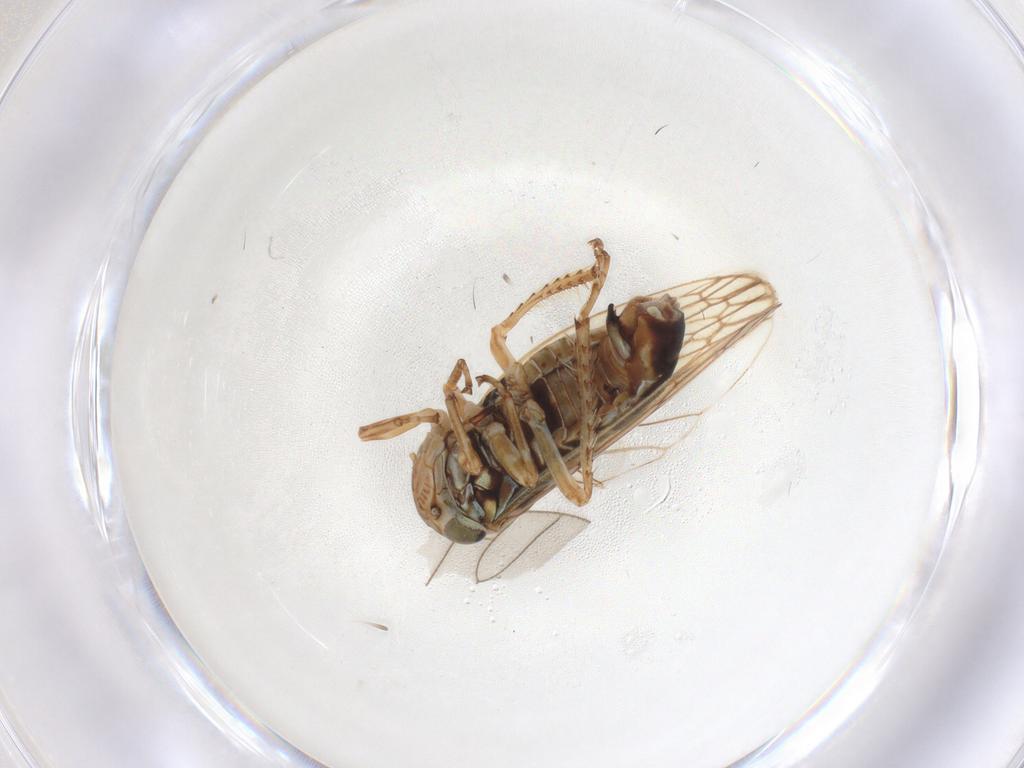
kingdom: Animalia
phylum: Arthropoda
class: Insecta
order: Hemiptera
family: Cicadellidae
